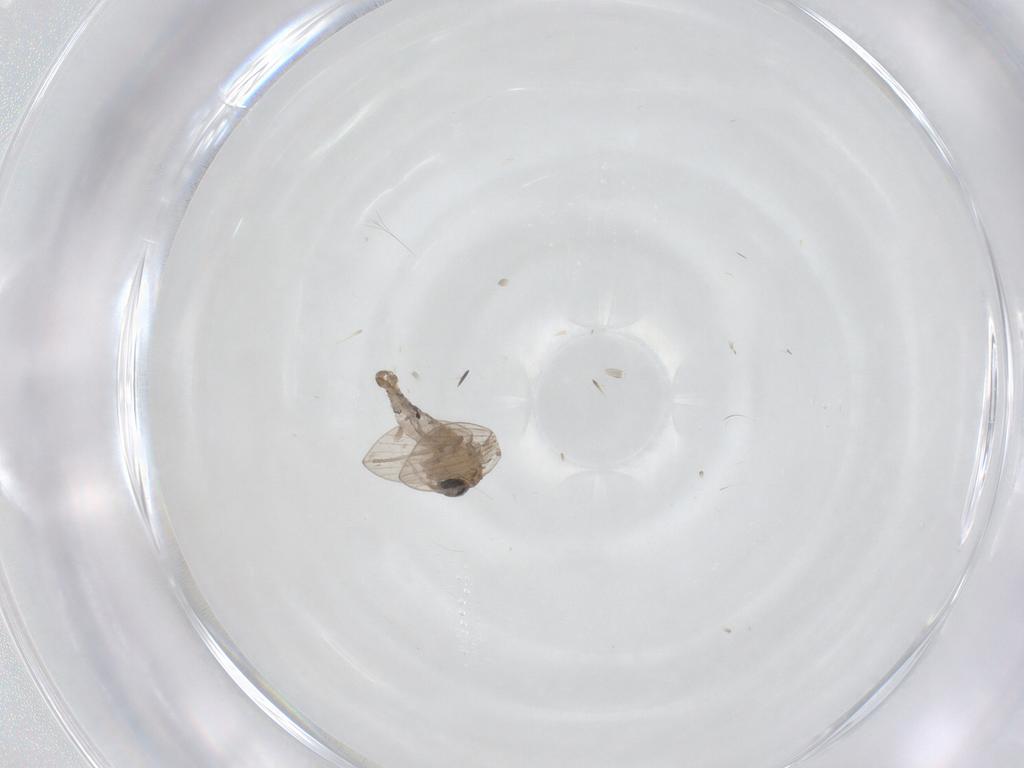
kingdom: Animalia
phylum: Arthropoda
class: Insecta
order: Diptera
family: Psychodidae
